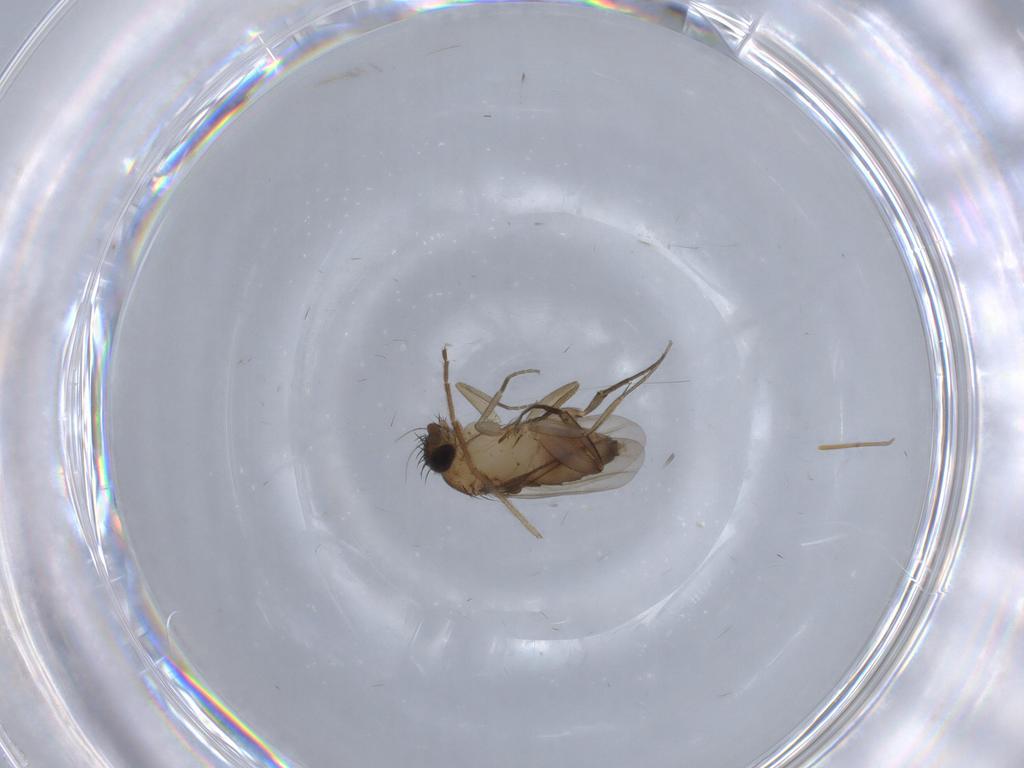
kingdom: Animalia
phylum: Arthropoda
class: Insecta
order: Diptera
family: Phoridae
